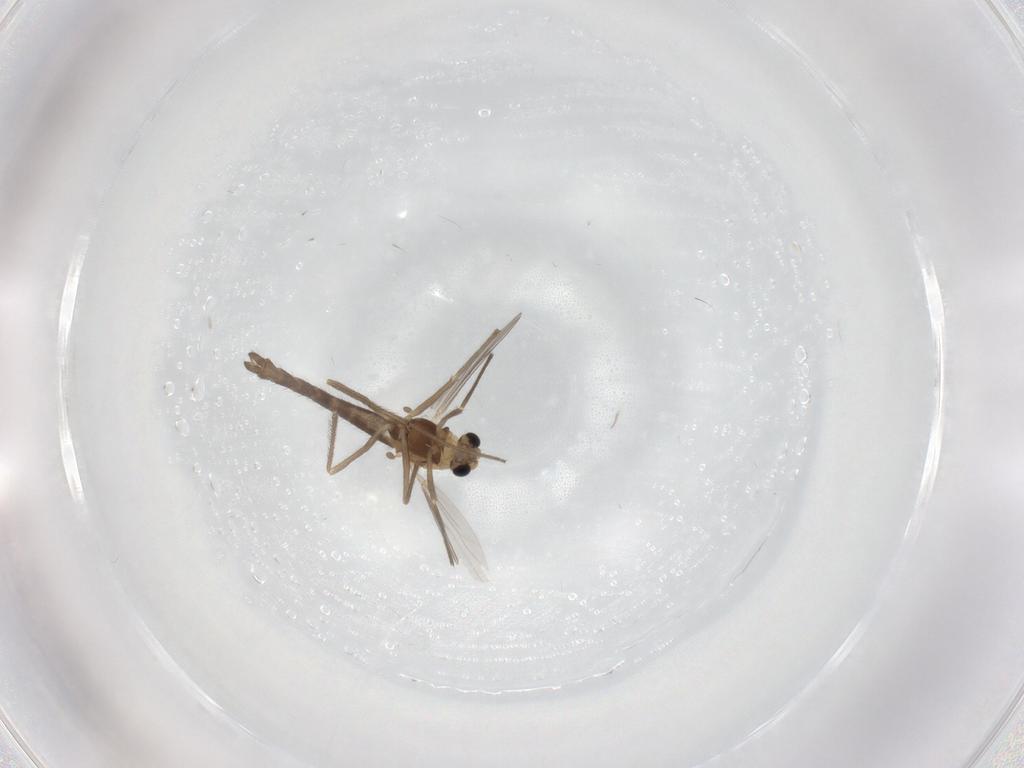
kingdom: Animalia
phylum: Arthropoda
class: Insecta
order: Diptera
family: Chironomidae
